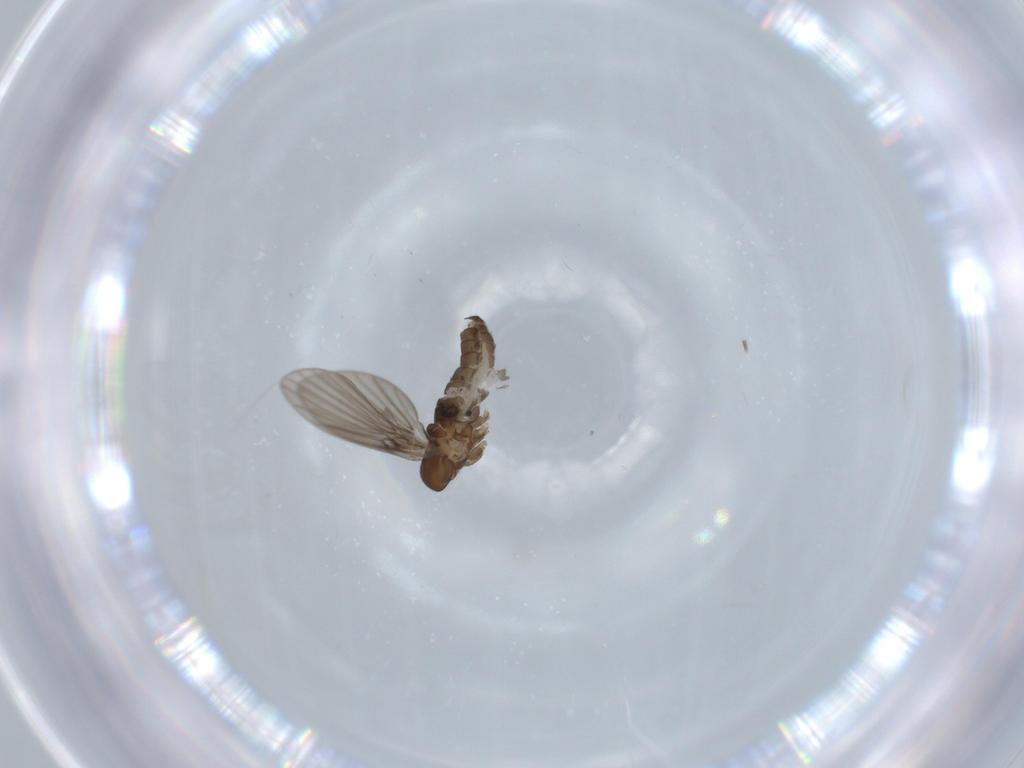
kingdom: Animalia
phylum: Arthropoda
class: Insecta
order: Diptera
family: Psychodidae
